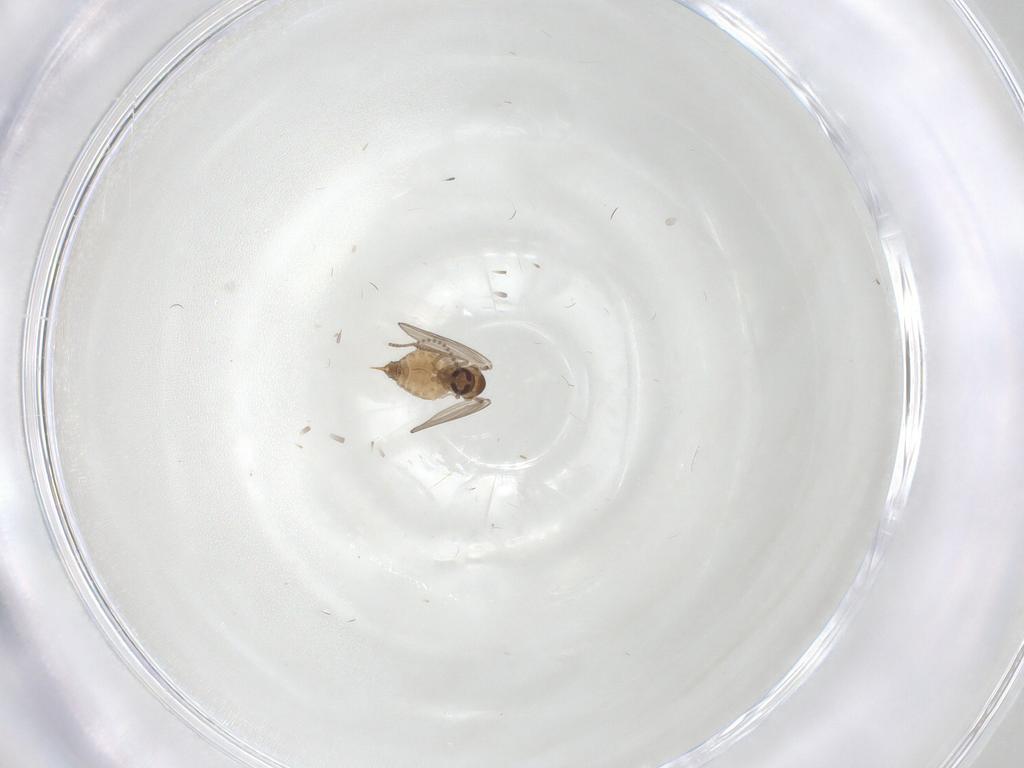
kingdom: Animalia
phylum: Arthropoda
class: Insecta
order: Diptera
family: Psychodidae
